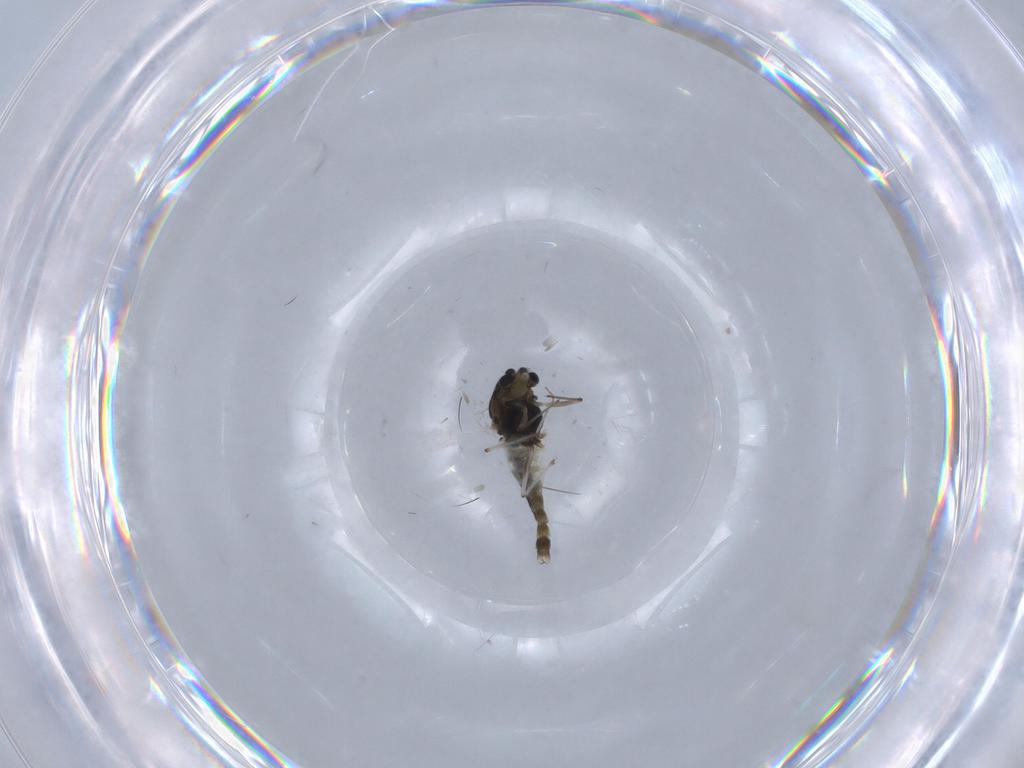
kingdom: Animalia
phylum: Arthropoda
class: Insecta
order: Diptera
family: Chironomidae
